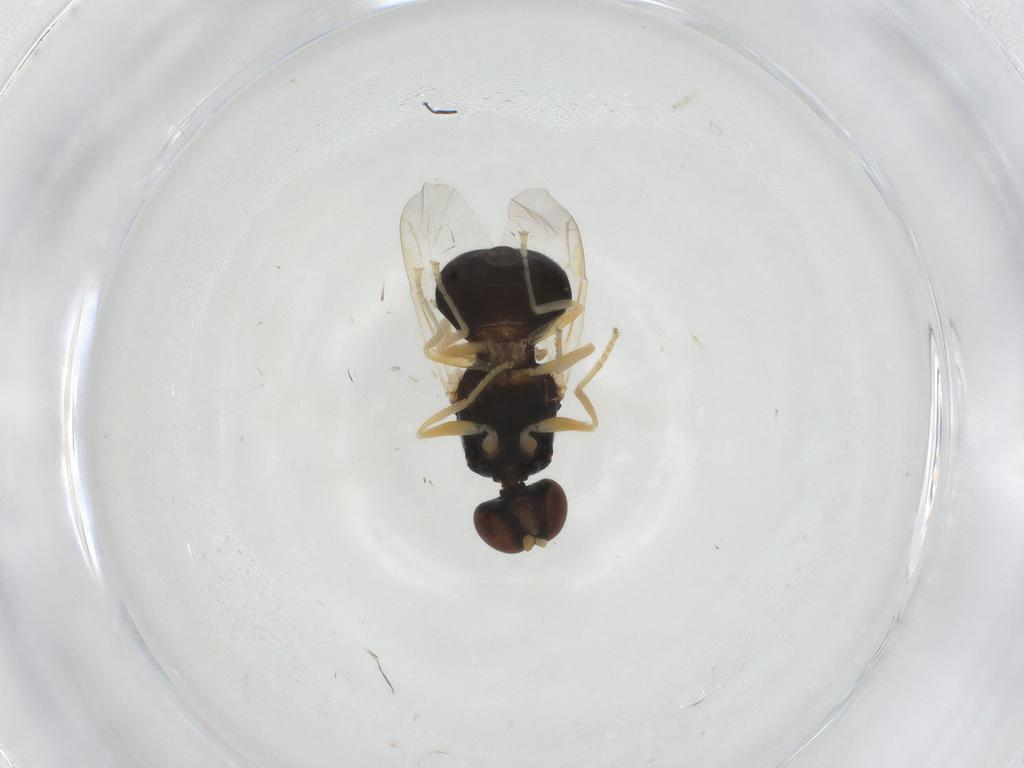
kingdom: Animalia
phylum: Arthropoda
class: Insecta
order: Diptera
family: Stratiomyidae
